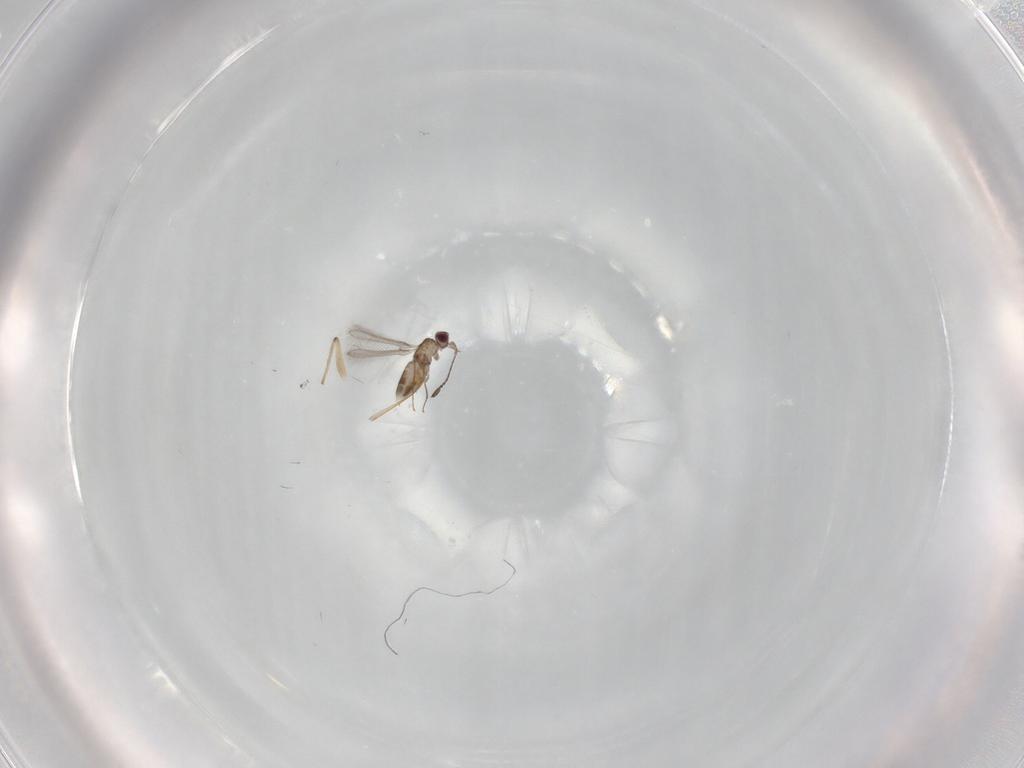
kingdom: Animalia
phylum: Arthropoda
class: Insecta
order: Hymenoptera
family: Mymaridae
